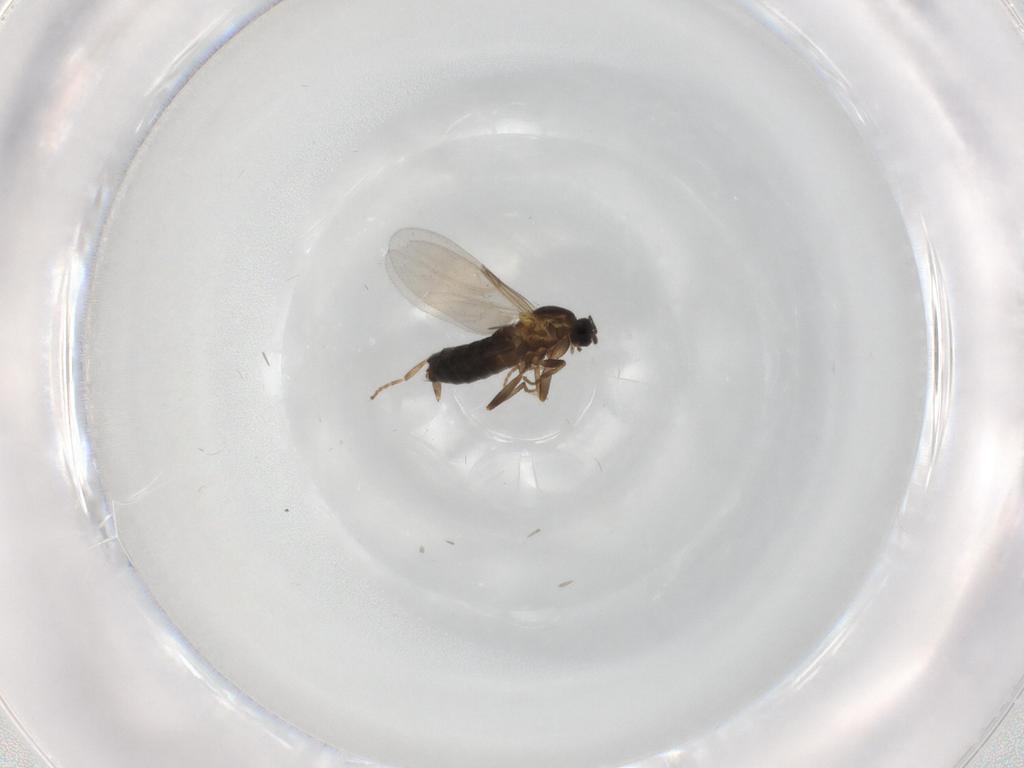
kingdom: Animalia
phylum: Arthropoda
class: Insecta
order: Diptera
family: Scatopsidae
